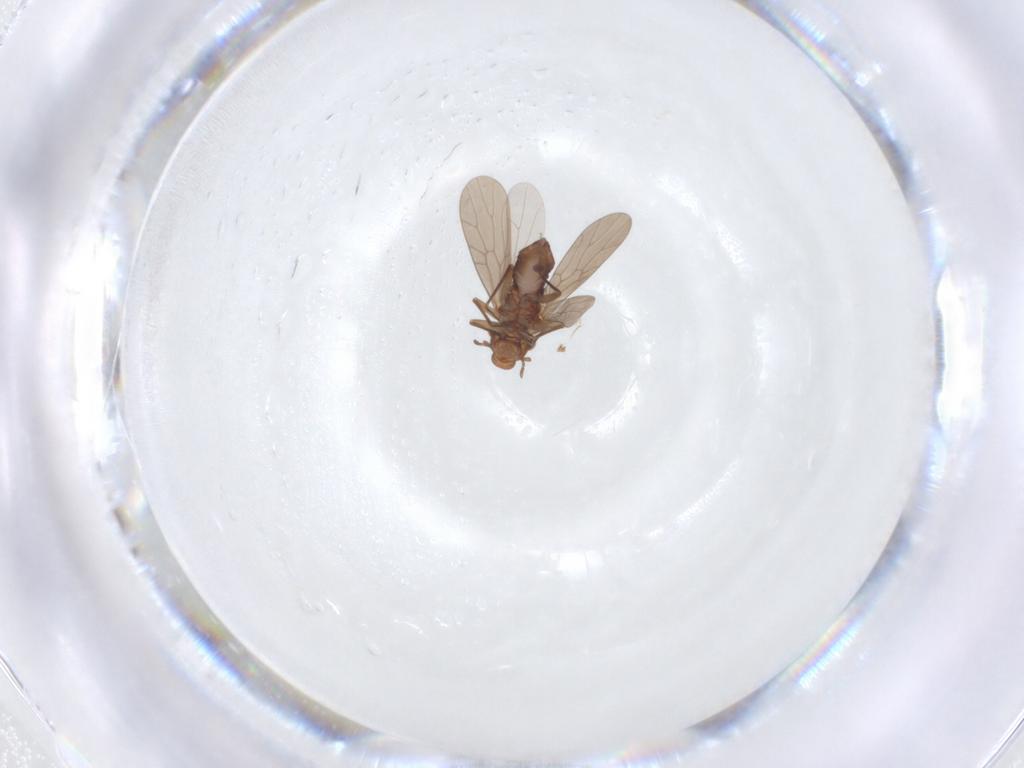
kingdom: Animalia
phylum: Arthropoda
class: Insecta
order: Psocodea
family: Lepidopsocidae
